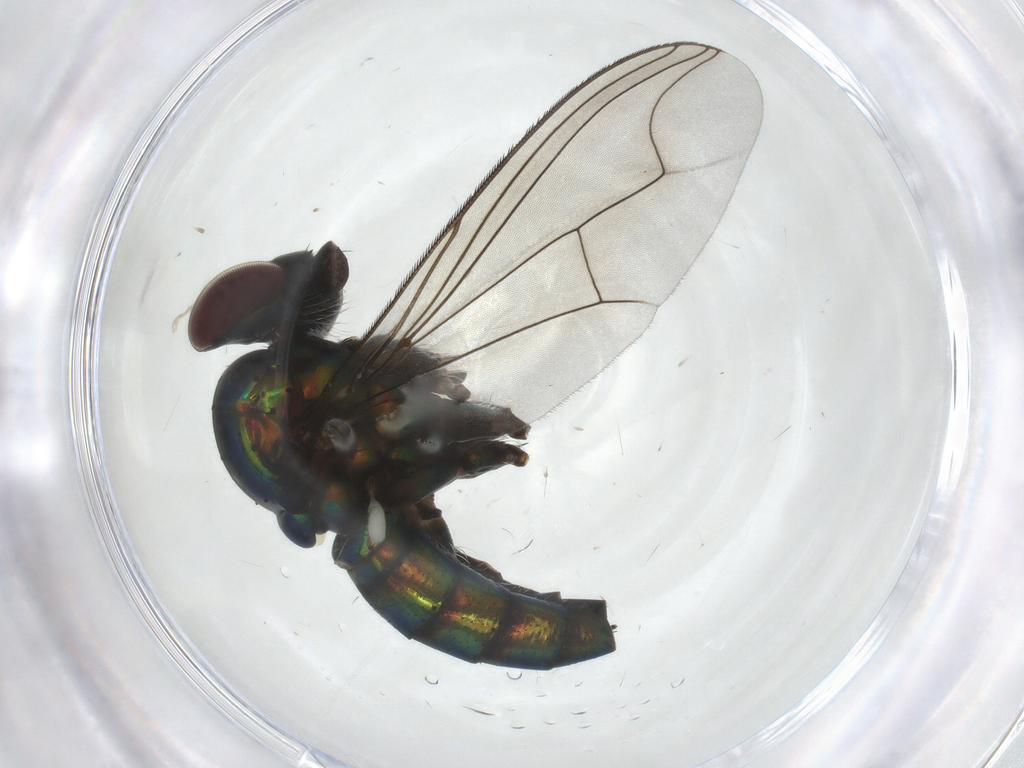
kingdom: Animalia
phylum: Arthropoda
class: Insecta
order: Diptera
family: Dolichopodidae
